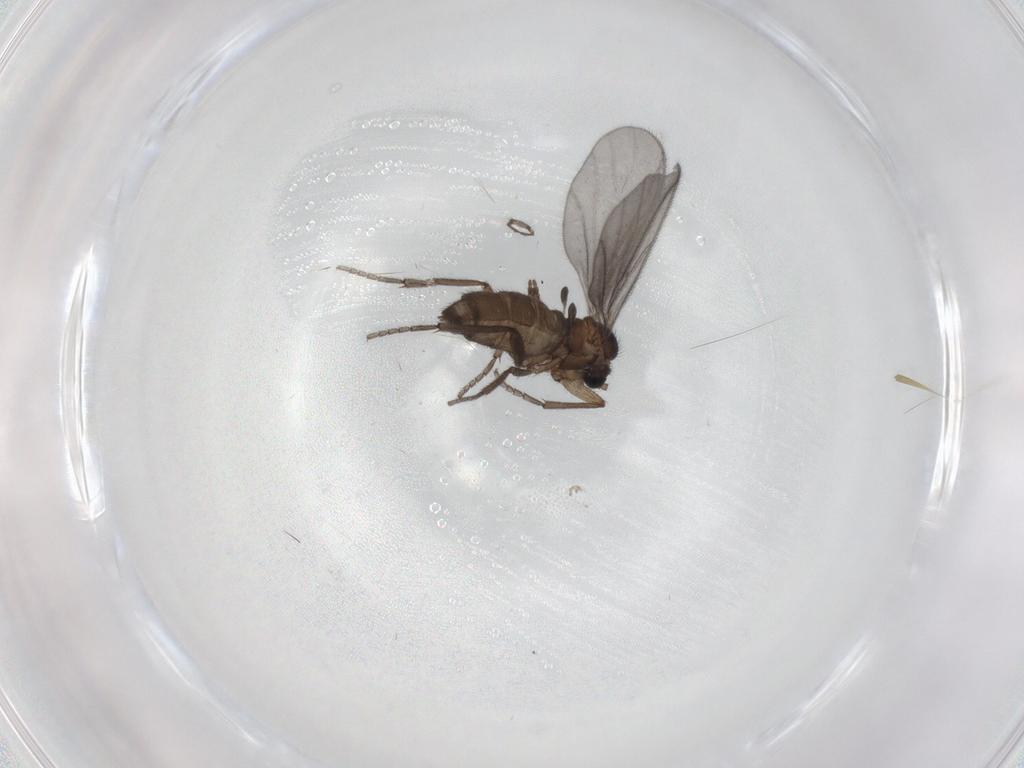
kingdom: Animalia
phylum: Arthropoda
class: Insecta
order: Diptera
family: Sciaridae
